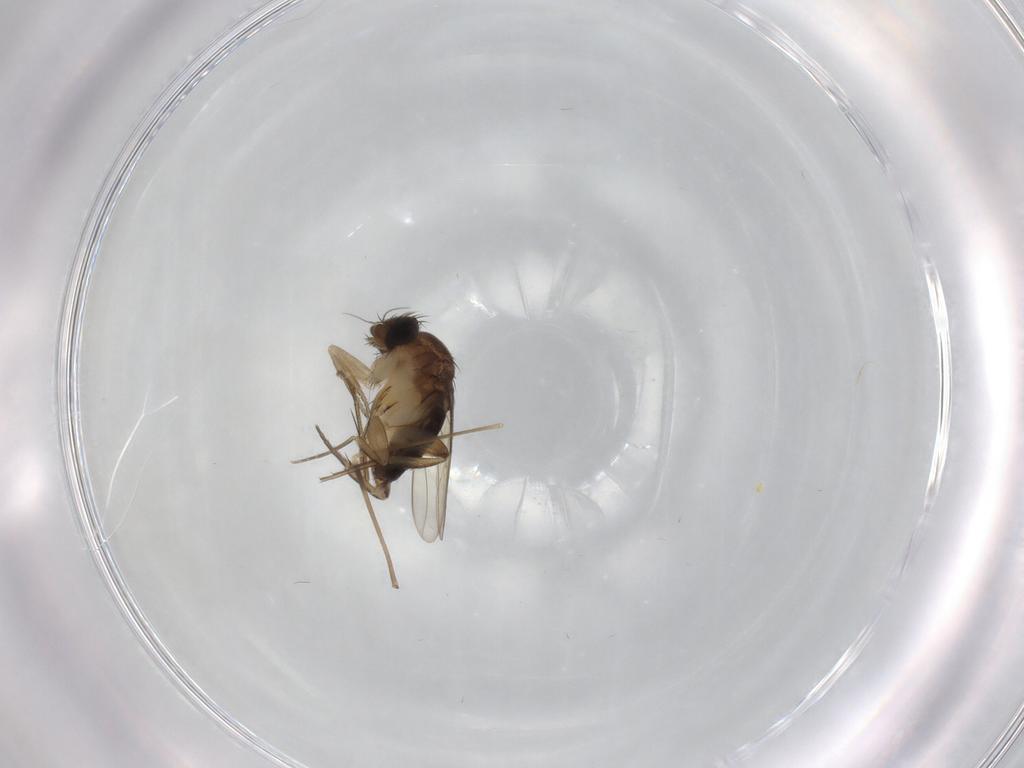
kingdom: Animalia
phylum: Arthropoda
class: Insecta
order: Diptera
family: Phoridae
